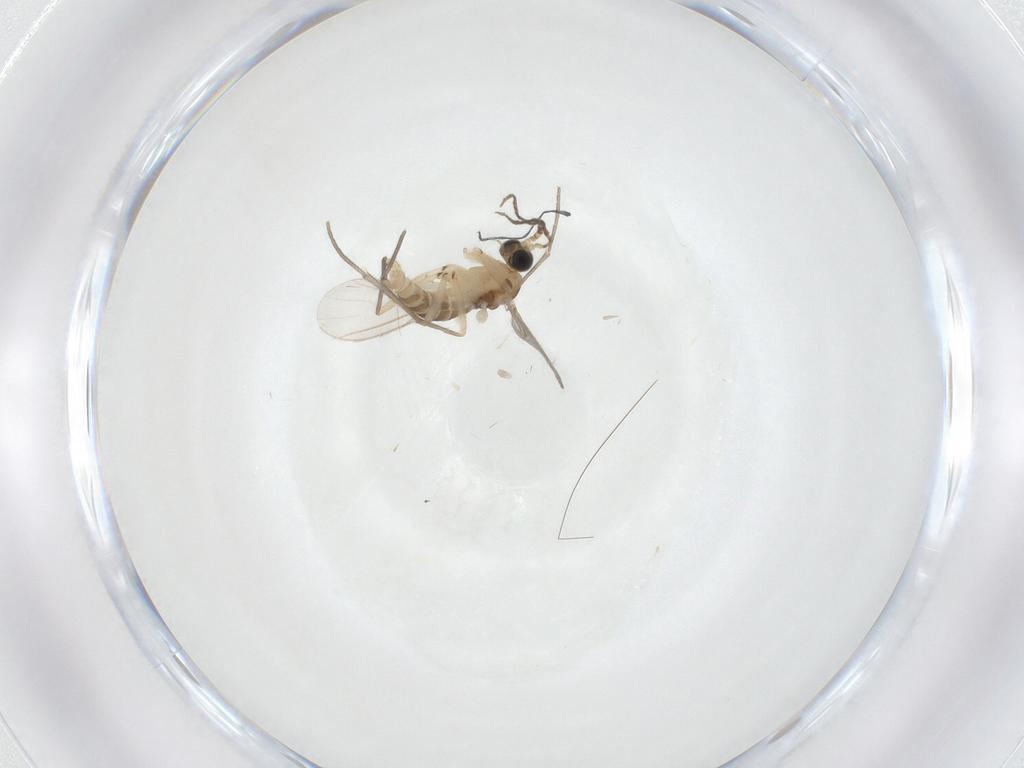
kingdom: Animalia
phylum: Arthropoda
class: Insecta
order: Diptera
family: Sciaridae
